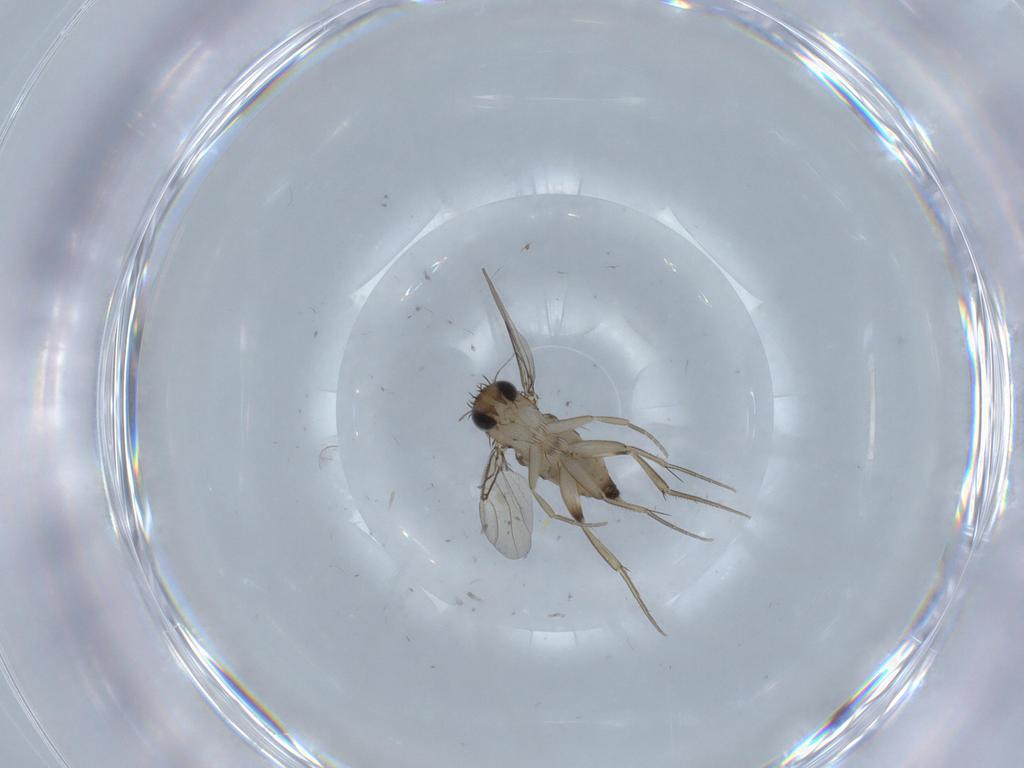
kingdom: Animalia
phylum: Arthropoda
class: Insecta
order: Diptera
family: Phoridae
